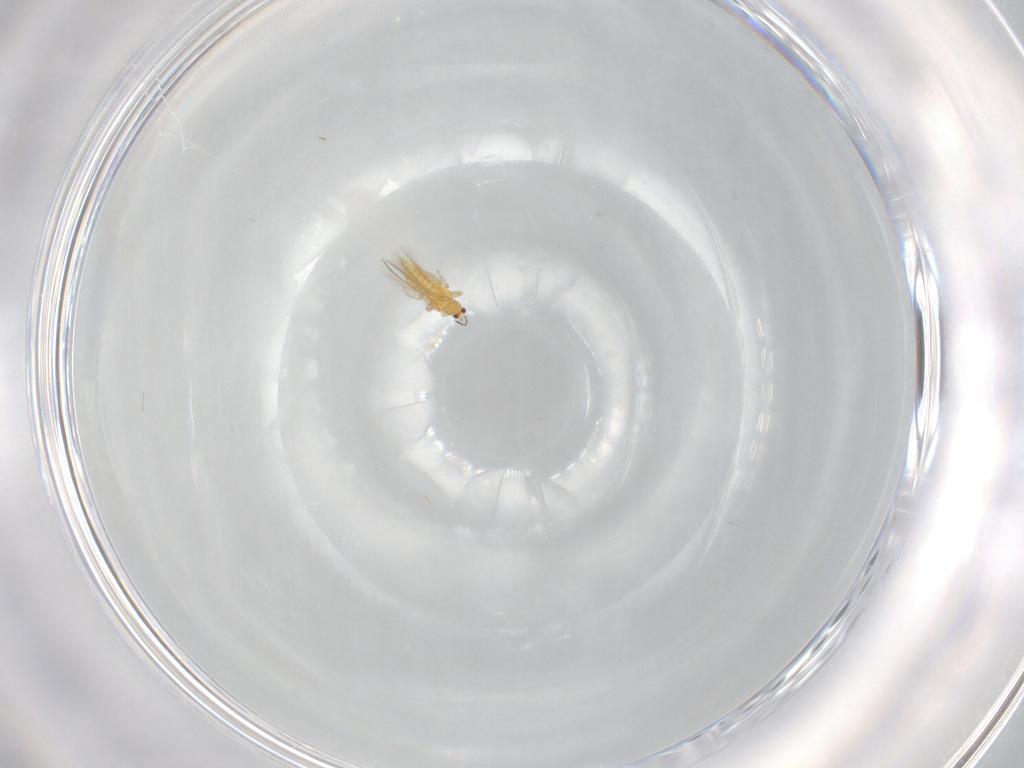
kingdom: Animalia
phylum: Arthropoda
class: Insecta
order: Thysanoptera
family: Thripidae
